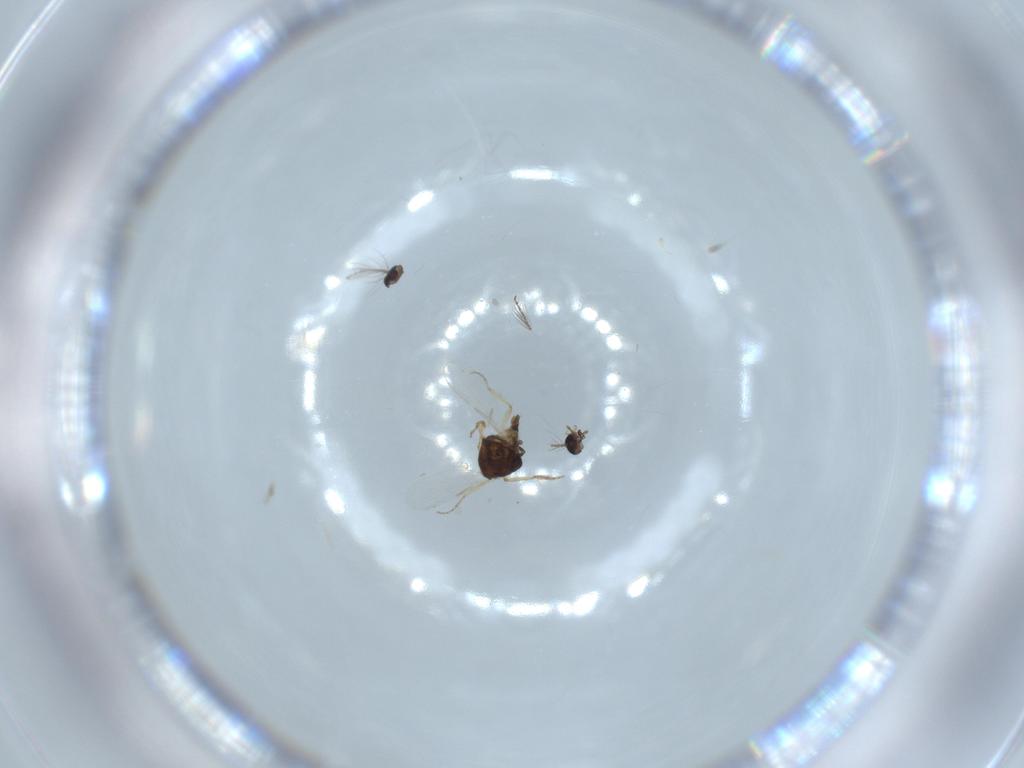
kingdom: Animalia
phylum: Arthropoda
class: Insecta
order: Diptera
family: Ceratopogonidae
